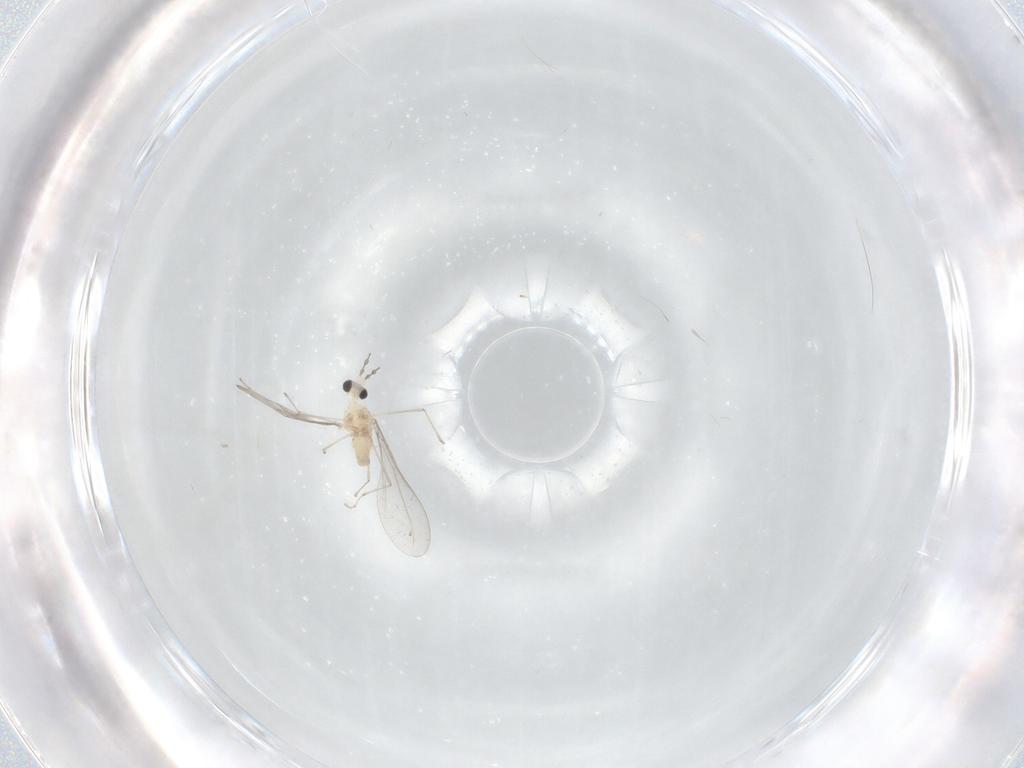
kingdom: Animalia
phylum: Arthropoda
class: Insecta
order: Diptera
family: Cecidomyiidae
